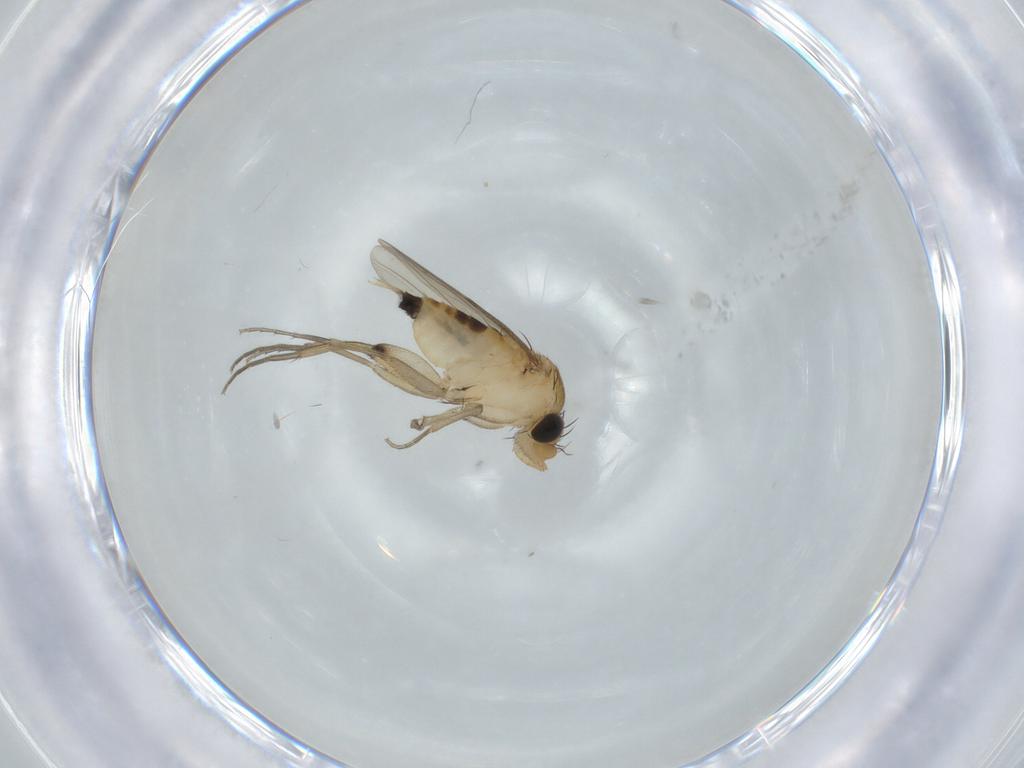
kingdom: Animalia
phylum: Arthropoda
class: Insecta
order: Diptera
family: Phoridae
